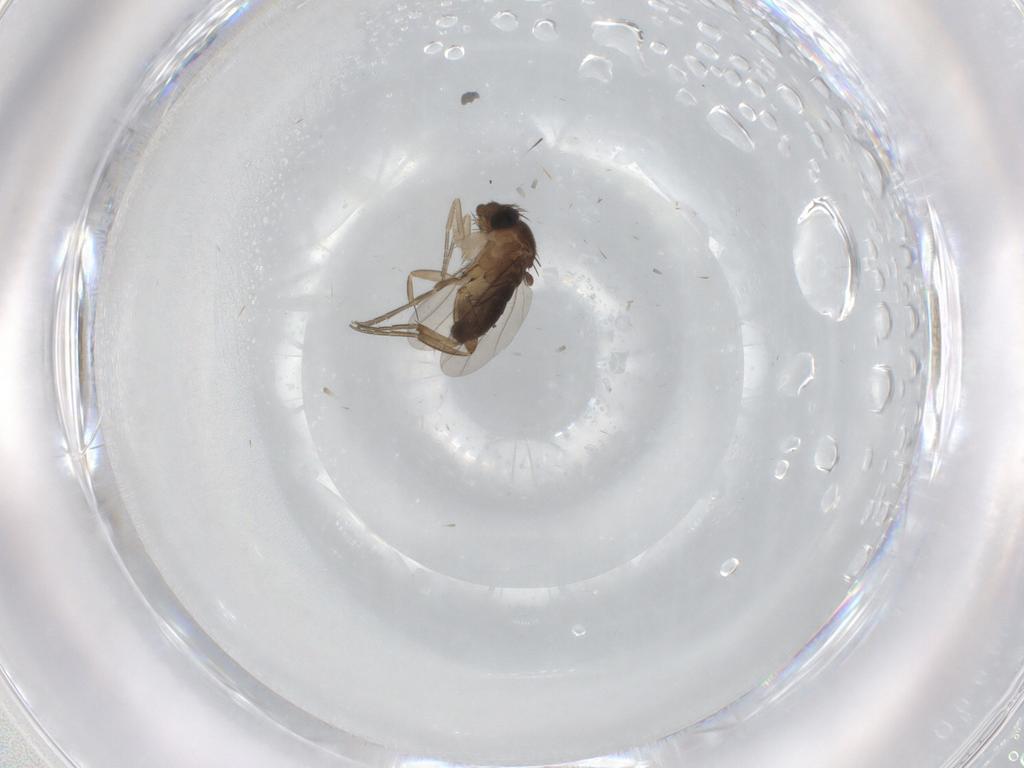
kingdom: Animalia
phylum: Arthropoda
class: Insecta
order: Diptera
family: Phoridae
